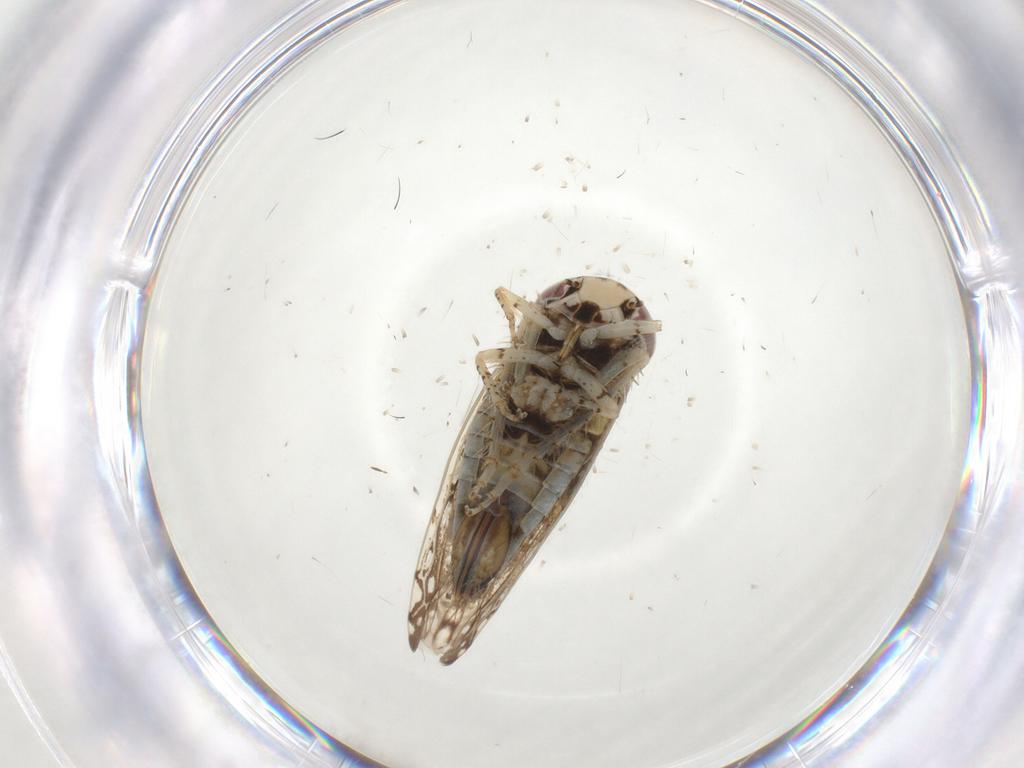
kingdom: Animalia
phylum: Arthropoda
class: Insecta
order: Hemiptera
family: Cicadellidae
